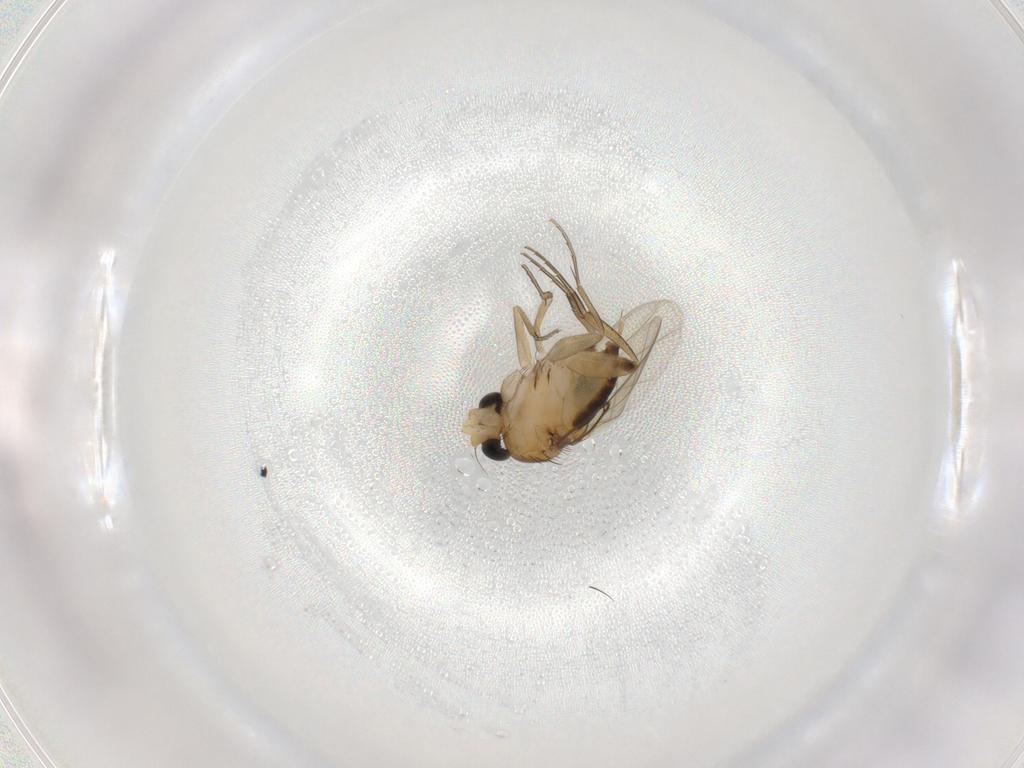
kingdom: Animalia
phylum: Arthropoda
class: Insecta
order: Diptera
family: Phoridae
